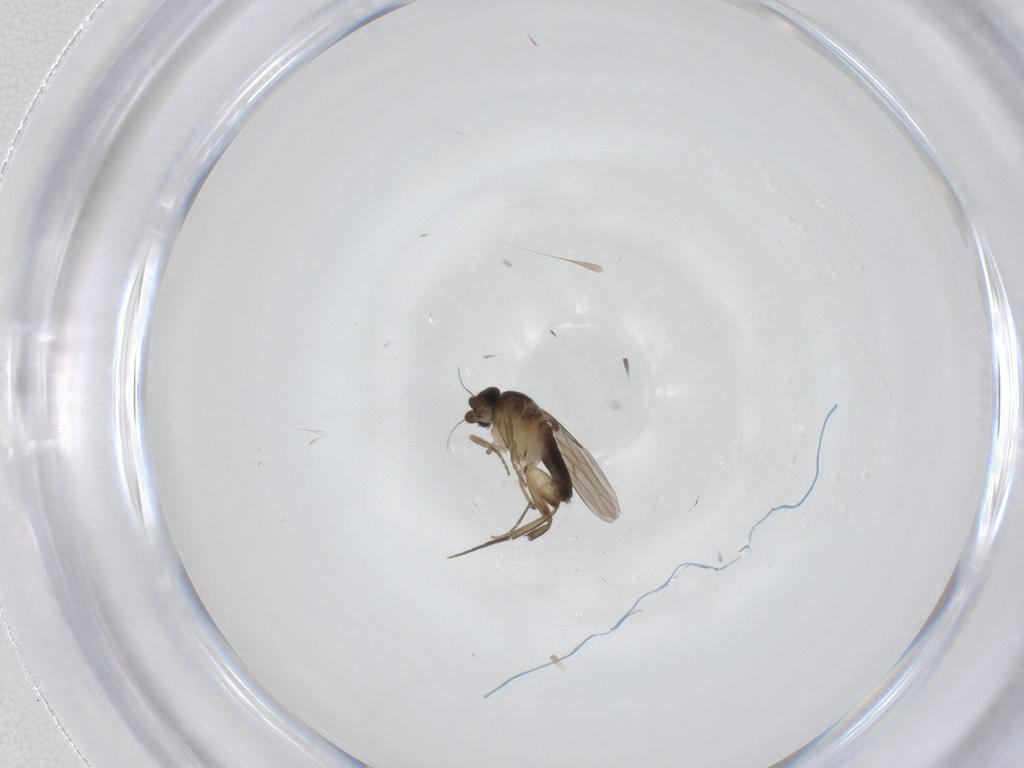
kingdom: Animalia
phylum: Arthropoda
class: Insecta
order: Diptera
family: Phoridae
